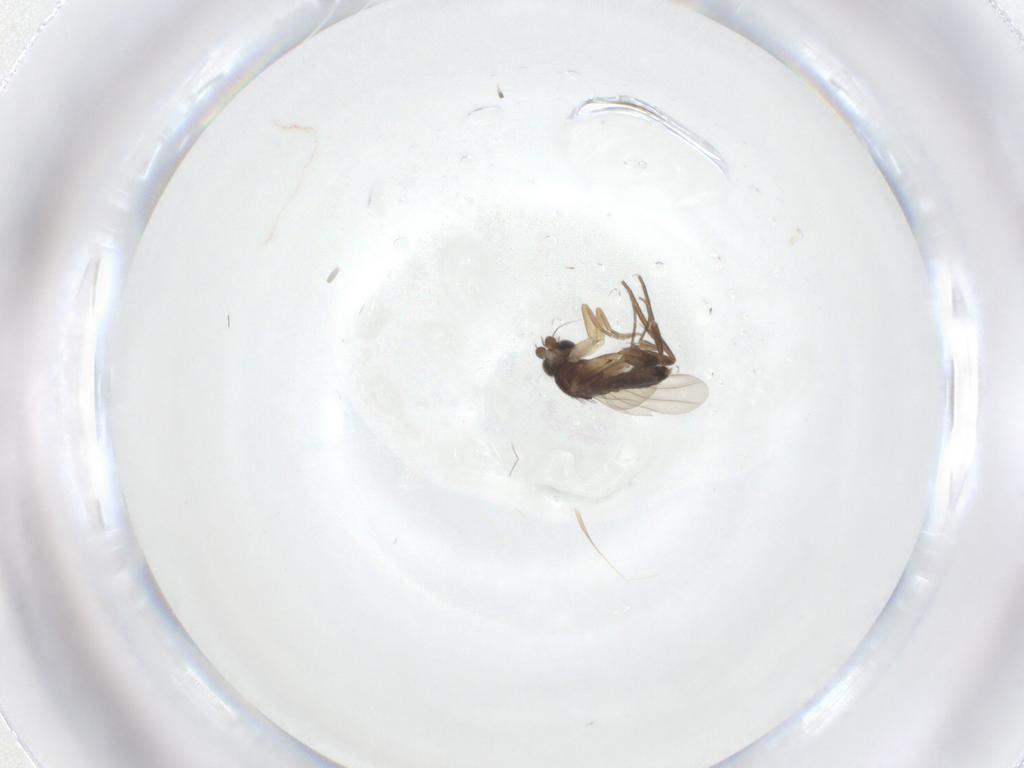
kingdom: Animalia
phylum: Arthropoda
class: Insecta
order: Diptera
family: Phoridae
